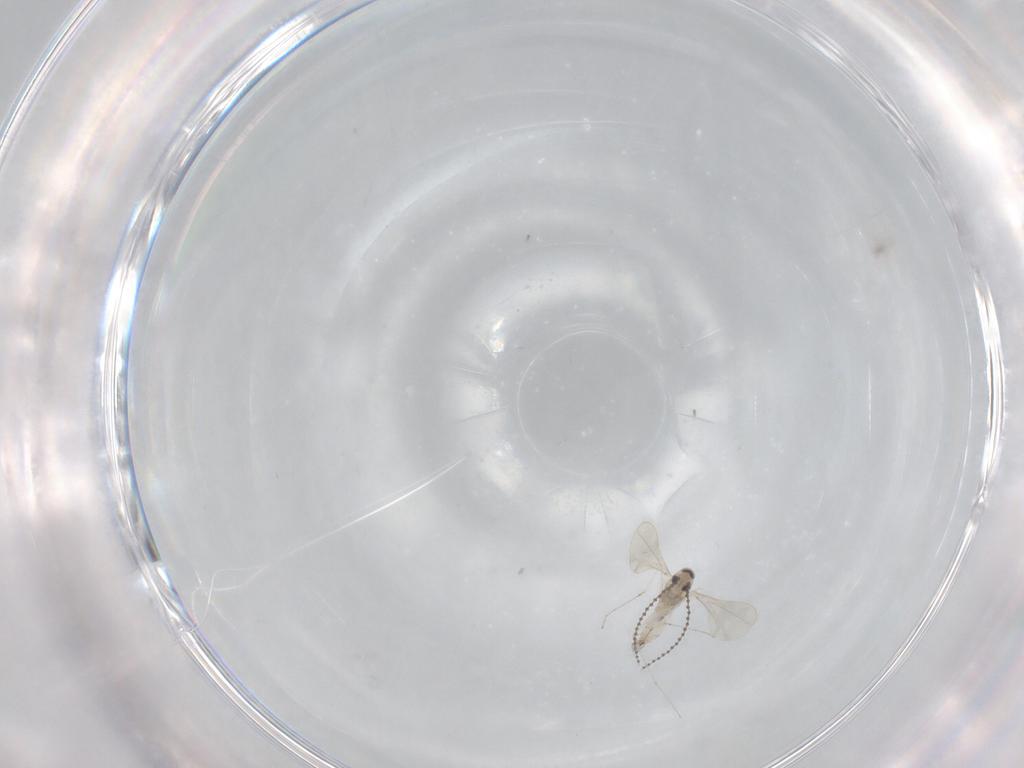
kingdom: Animalia
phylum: Arthropoda
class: Insecta
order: Diptera
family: Cecidomyiidae
